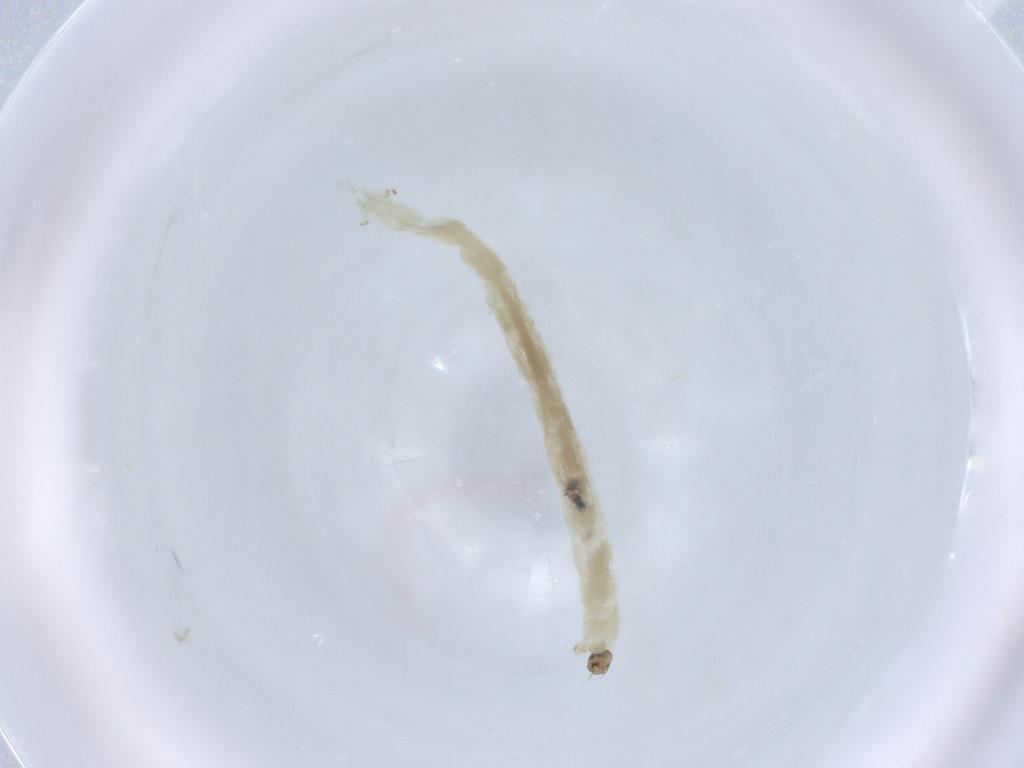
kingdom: Animalia
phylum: Arthropoda
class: Insecta
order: Diptera
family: Chironomidae
